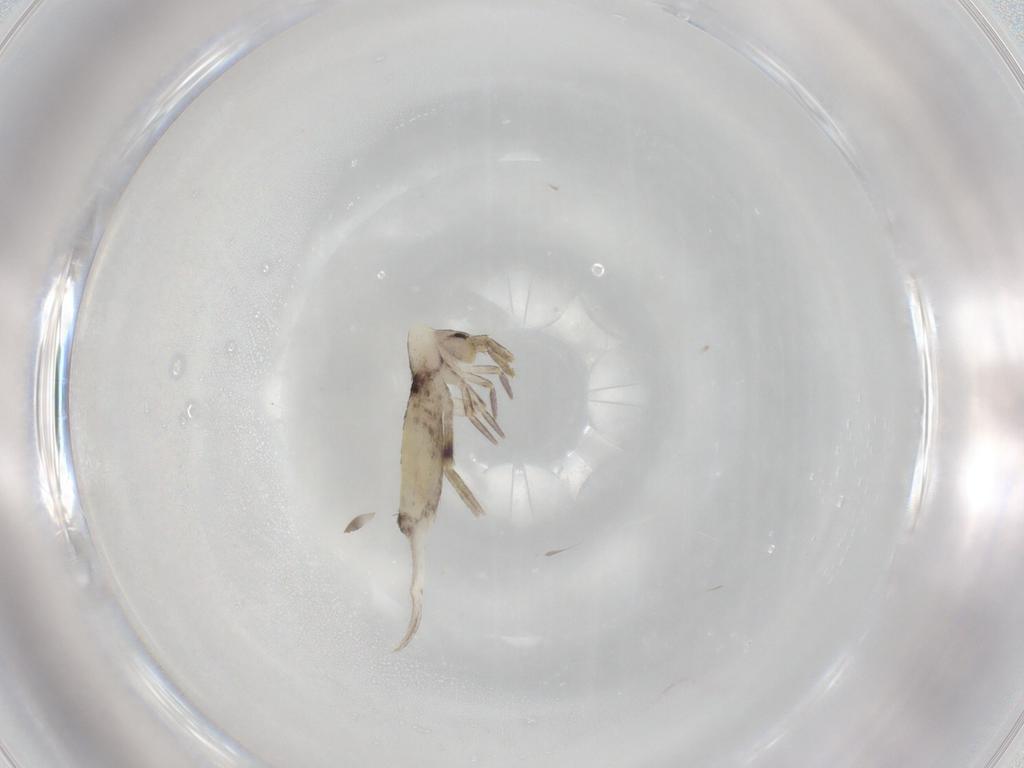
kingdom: Animalia
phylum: Arthropoda
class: Collembola
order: Entomobryomorpha
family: Entomobryidae
